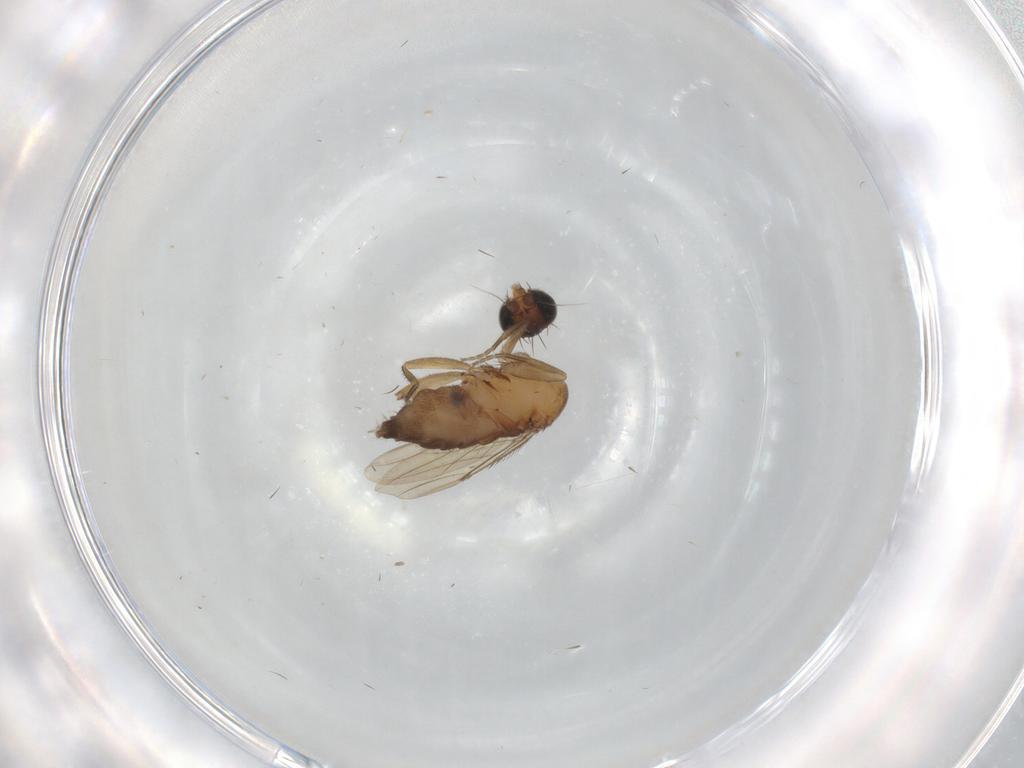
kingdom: Animalia
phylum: Arthropoda
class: Insecta
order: Diptera
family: Phoridae
